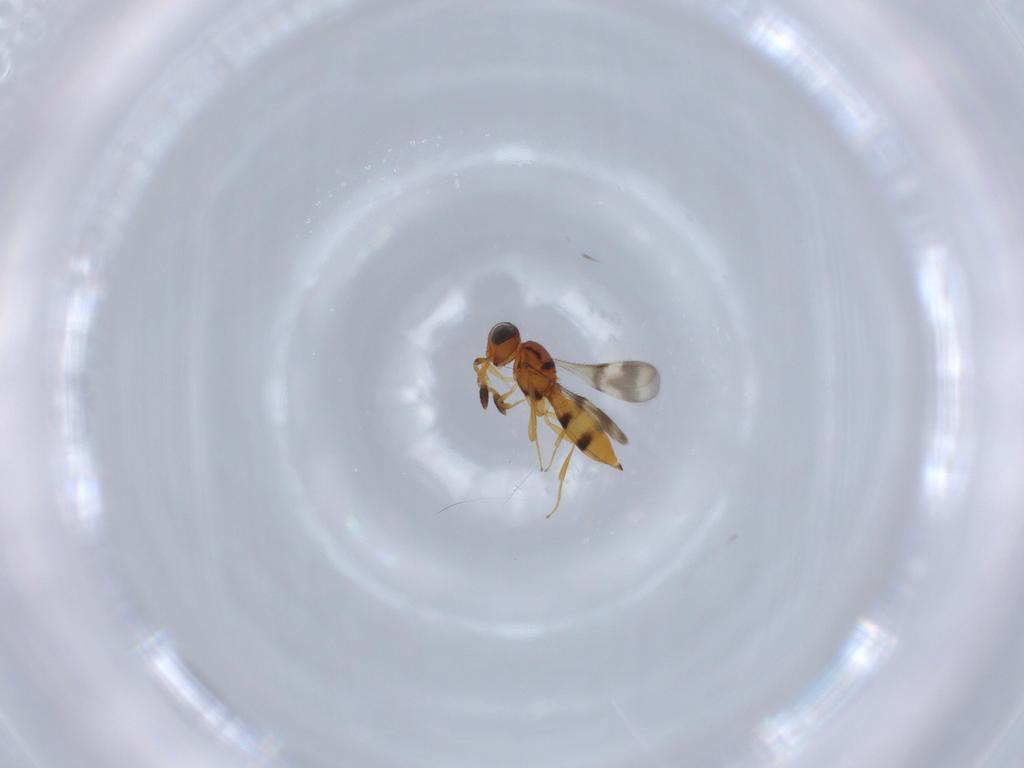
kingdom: Animalia
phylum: Arthropoda
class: Insecta
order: Hymenoptera
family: Scelionidae
